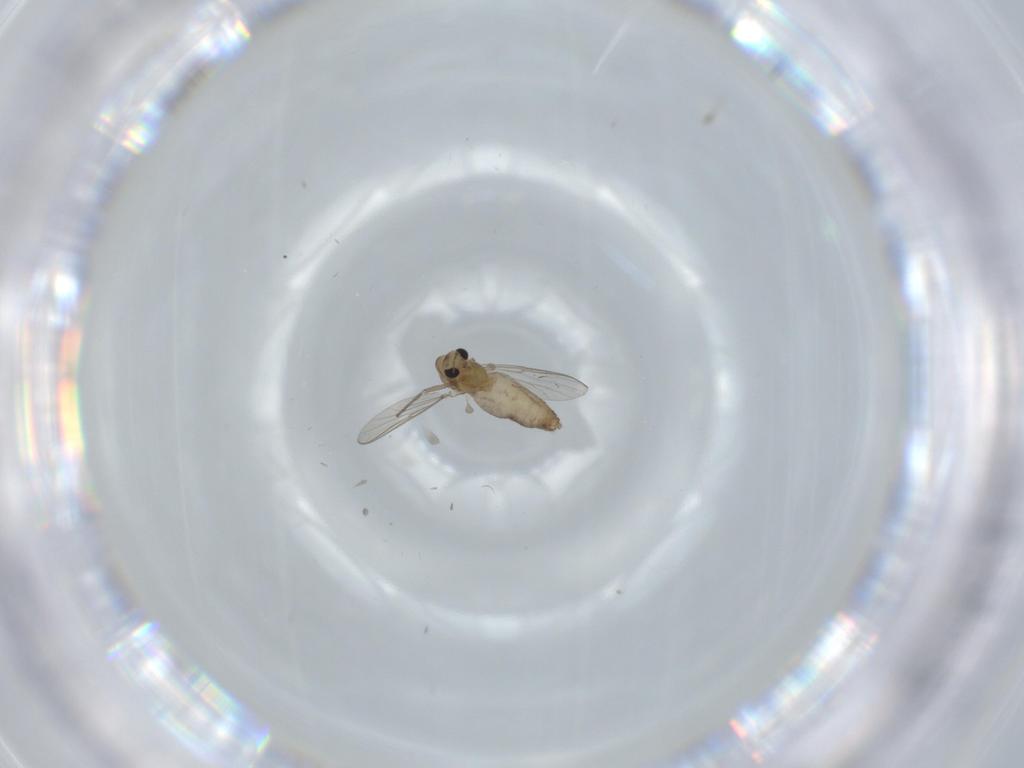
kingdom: Animalia
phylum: Arthropoda
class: Insecta
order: Diptera
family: Chironomidae
